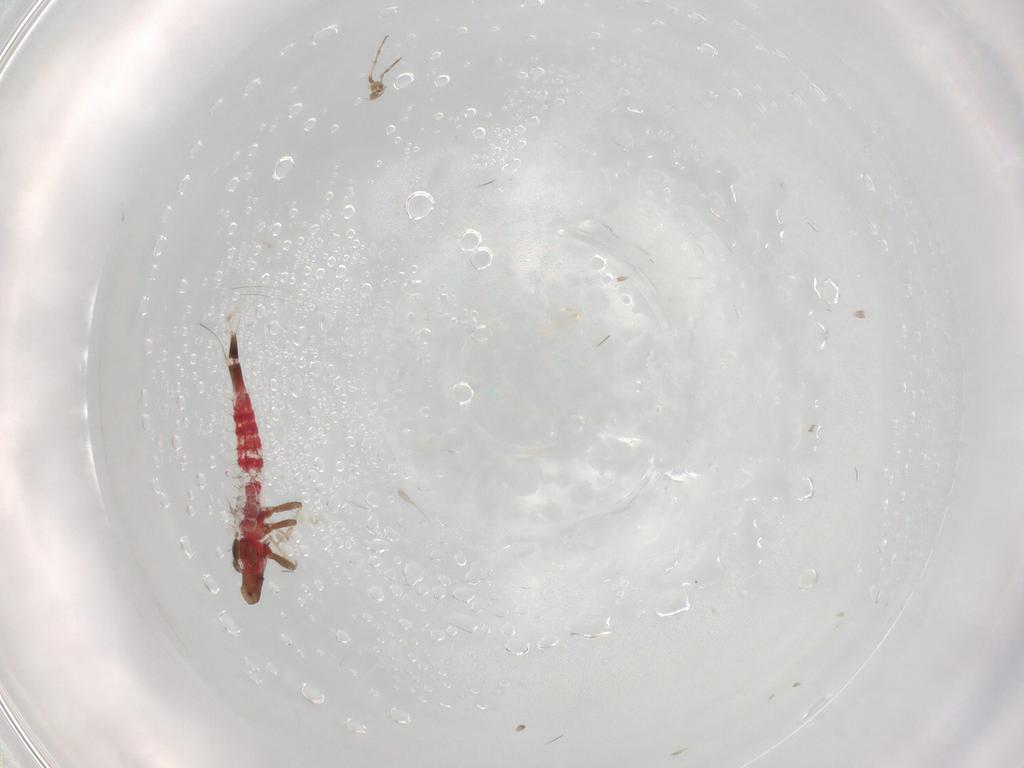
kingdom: Animalia
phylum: Arthropoda
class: Insecta
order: Thysanoptera
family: Phlaeothripidae
